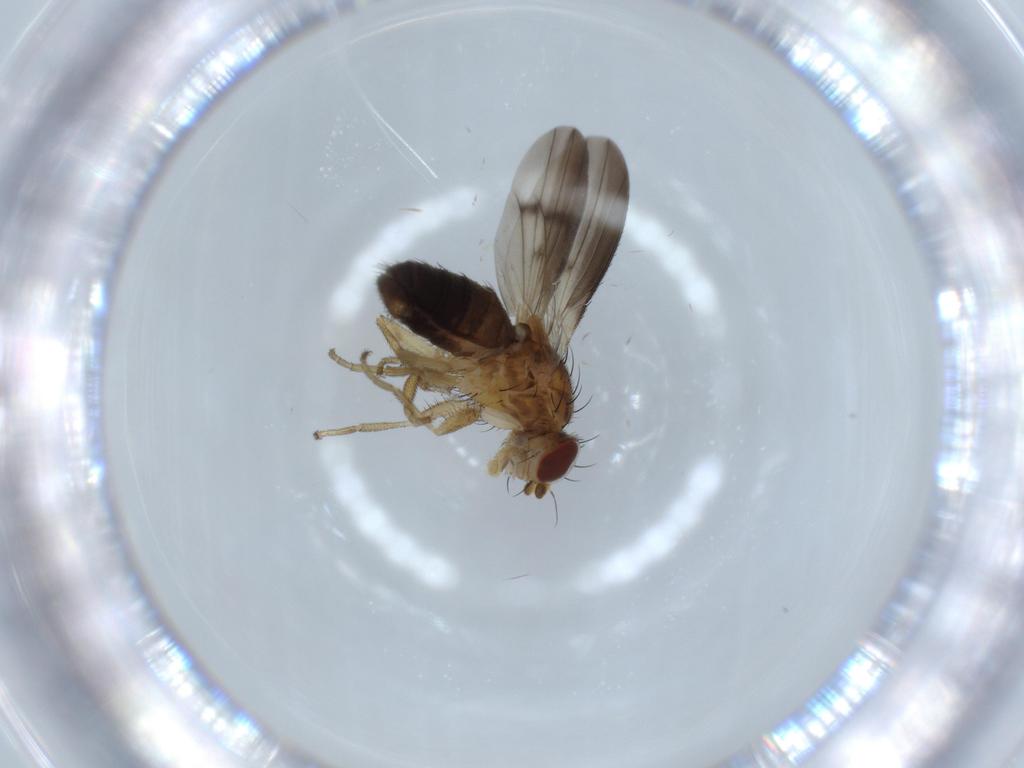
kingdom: Animalia
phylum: Arthropoda
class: Insecta
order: Diptera
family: Heleomyzidae
